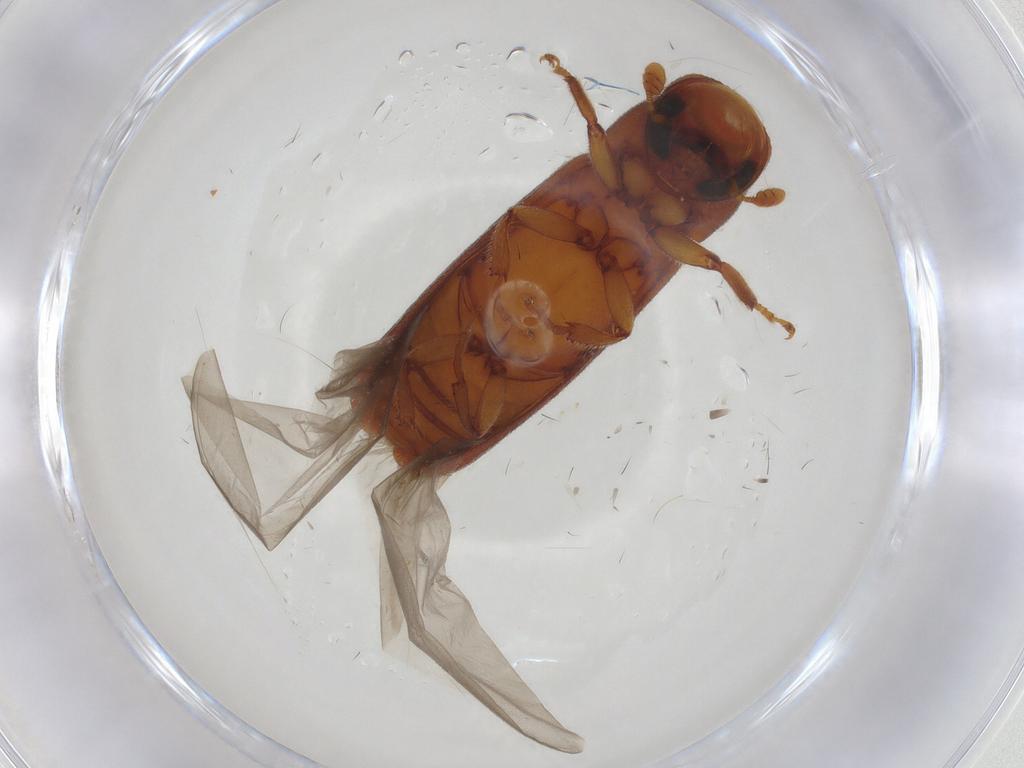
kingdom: Animalia
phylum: Arthropoda
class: Insecta
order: Coleoptera
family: Curculionidae
